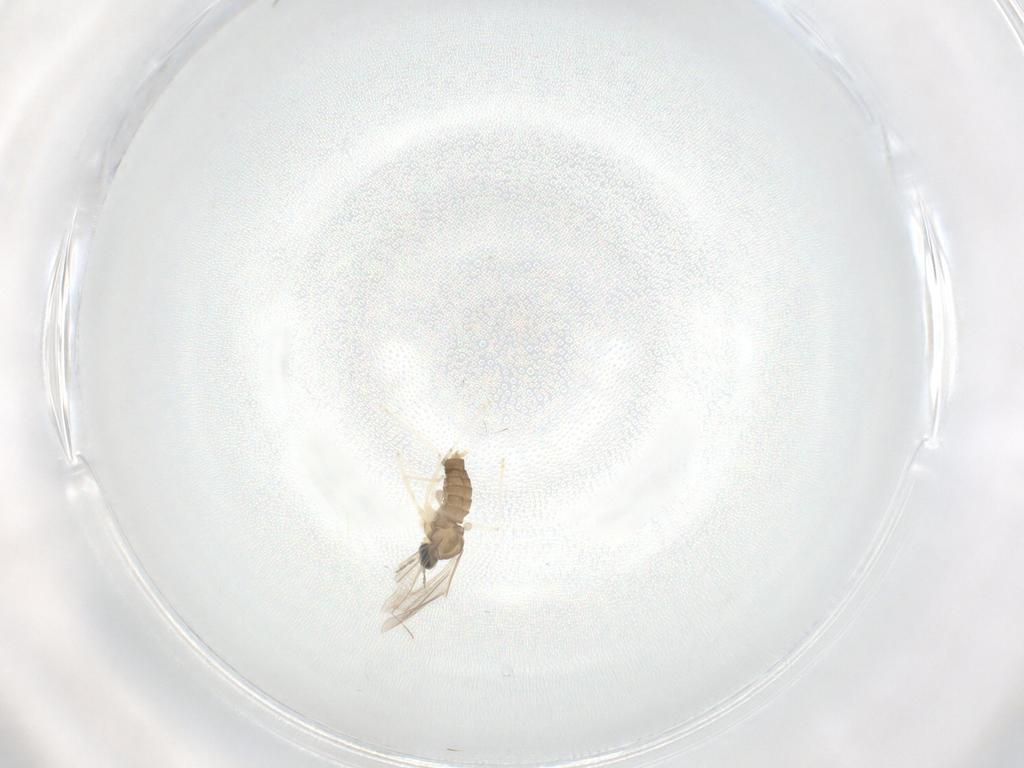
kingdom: Animalia
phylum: Arthropoda
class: Insecta
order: Diptera
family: Cecidomyiidae
